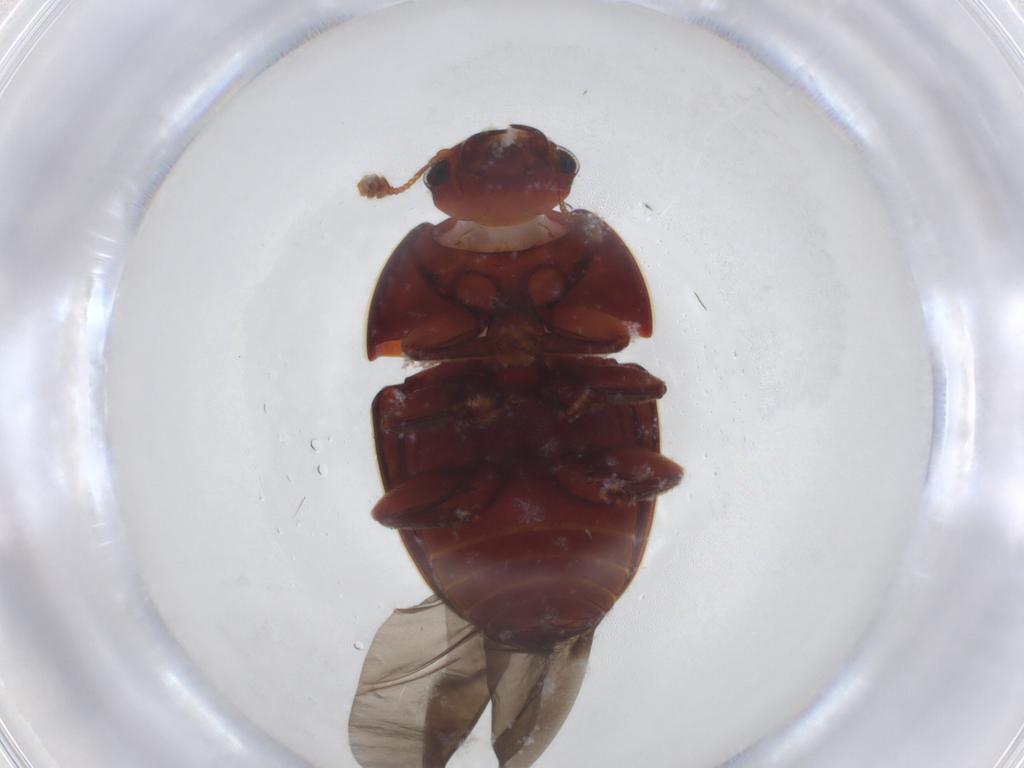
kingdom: Animalia
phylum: Arthropoda
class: Insecta
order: Coleoptera
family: Nitidulidae
